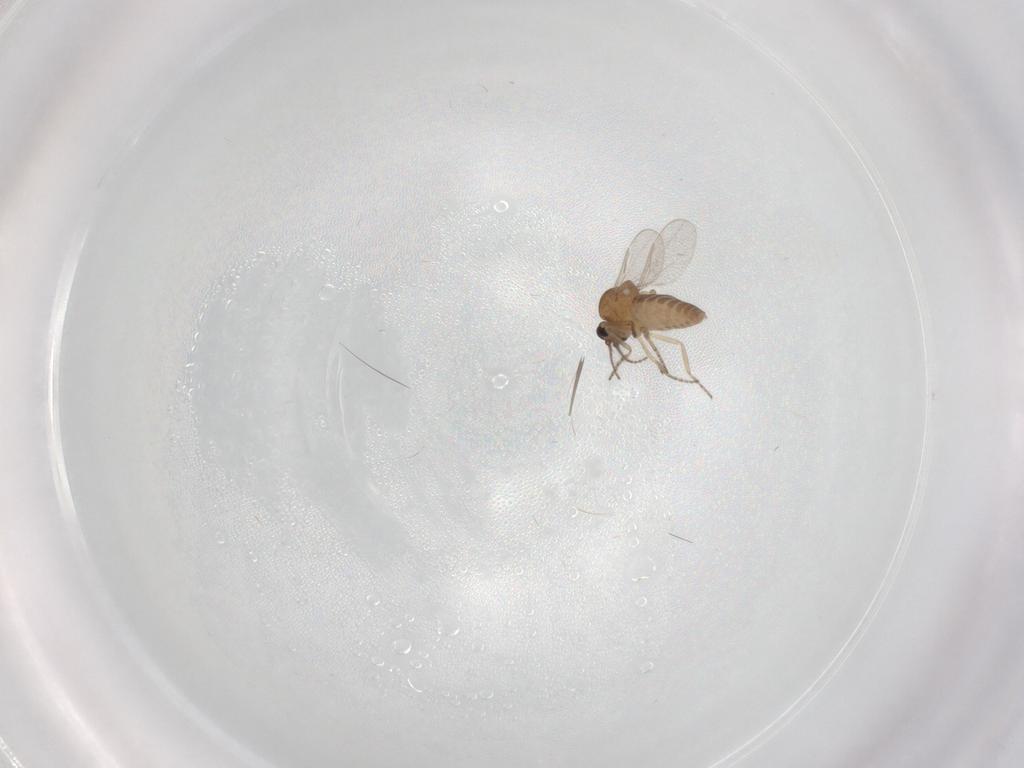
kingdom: Animalia
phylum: Arthropoda
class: Insecta
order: Diptera
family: Ceratopogonidae
